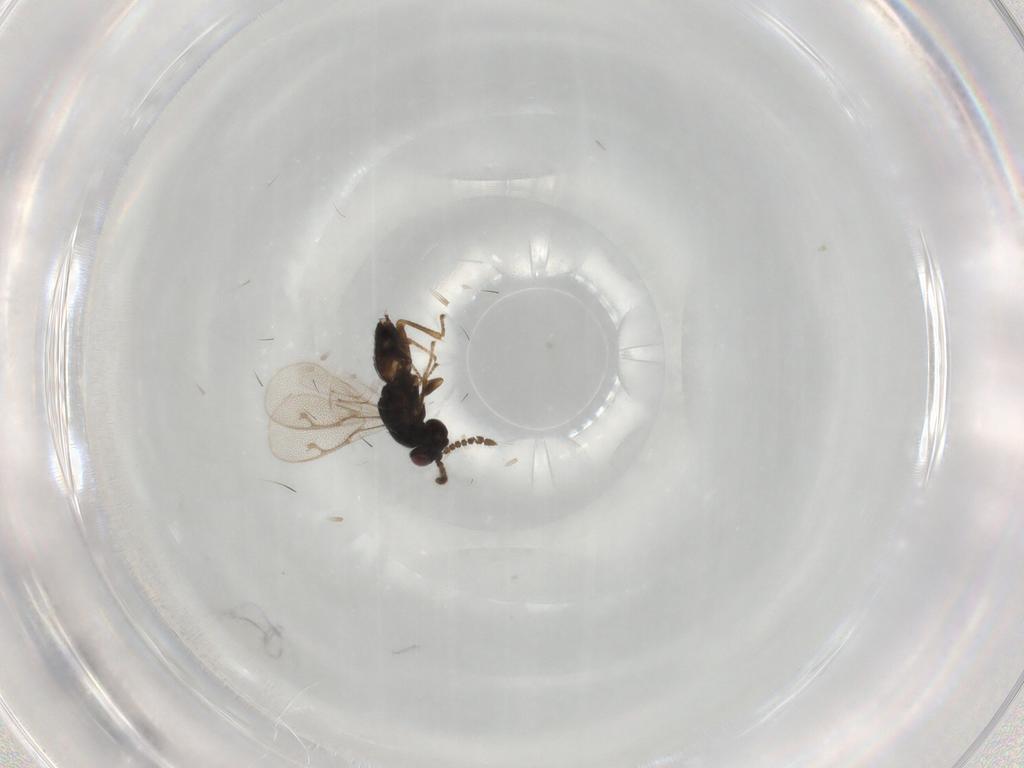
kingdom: Animalia
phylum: Arthropoda
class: Insecta
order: Hymenoptera
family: Pirenidae
